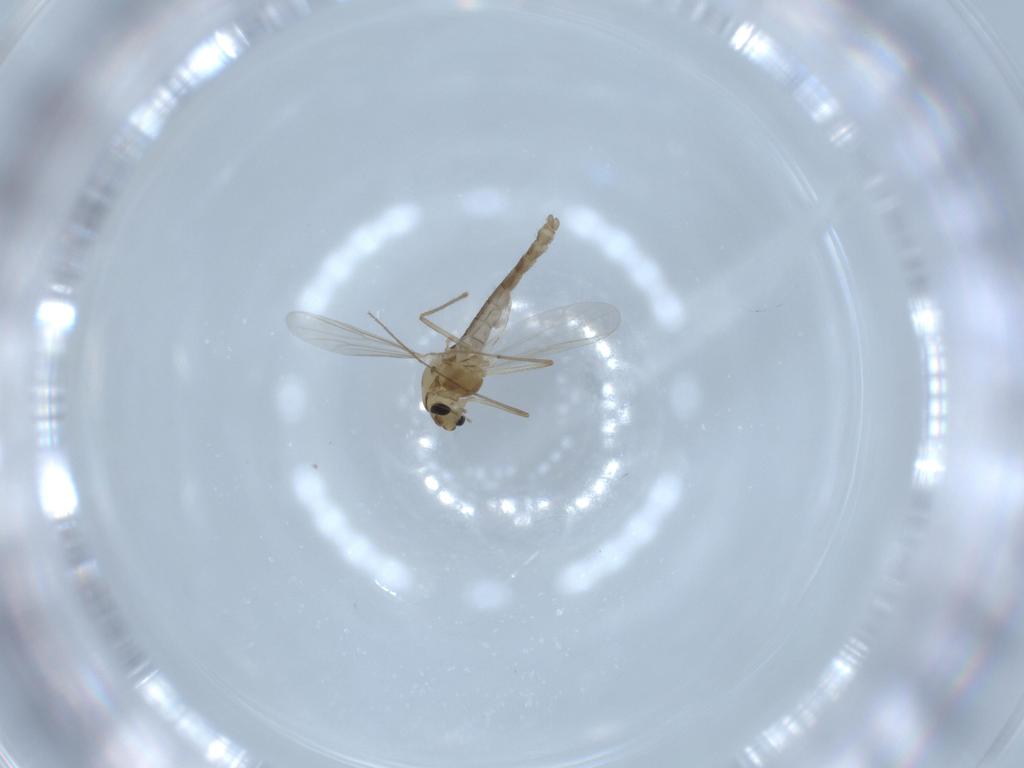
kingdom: Animalia
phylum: Arthropoda
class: Insecta
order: Diptera
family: Chironomidae
